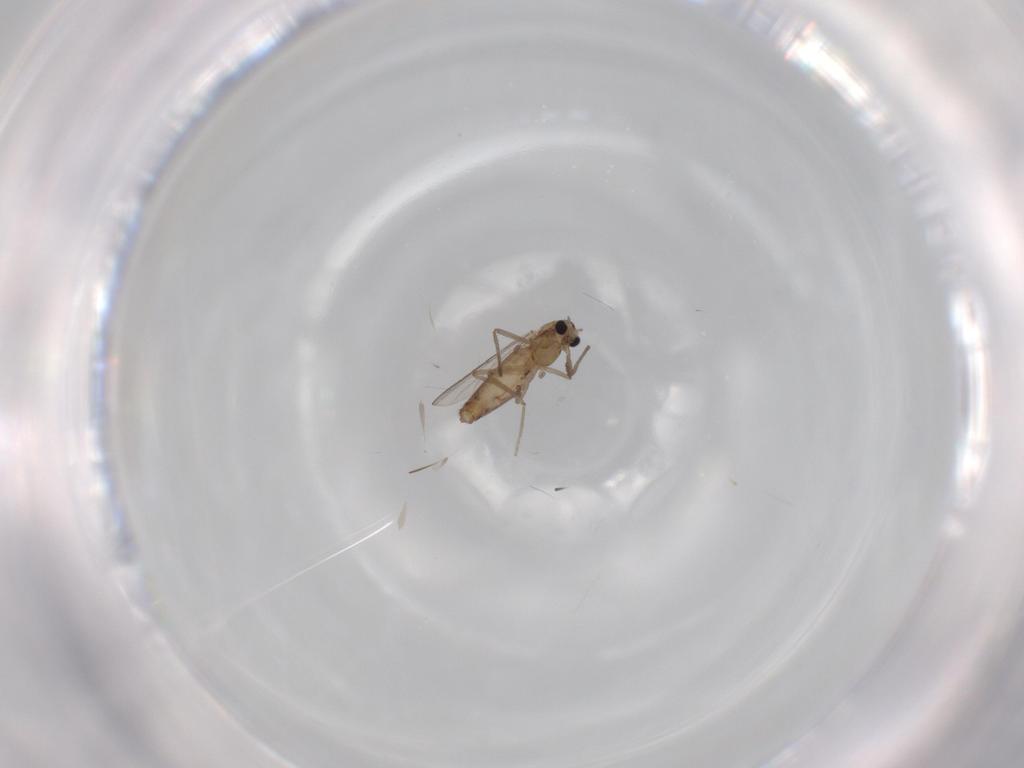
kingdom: Animalia
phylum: Arthropoda
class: Insecta
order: Diptera
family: Chironomidae
